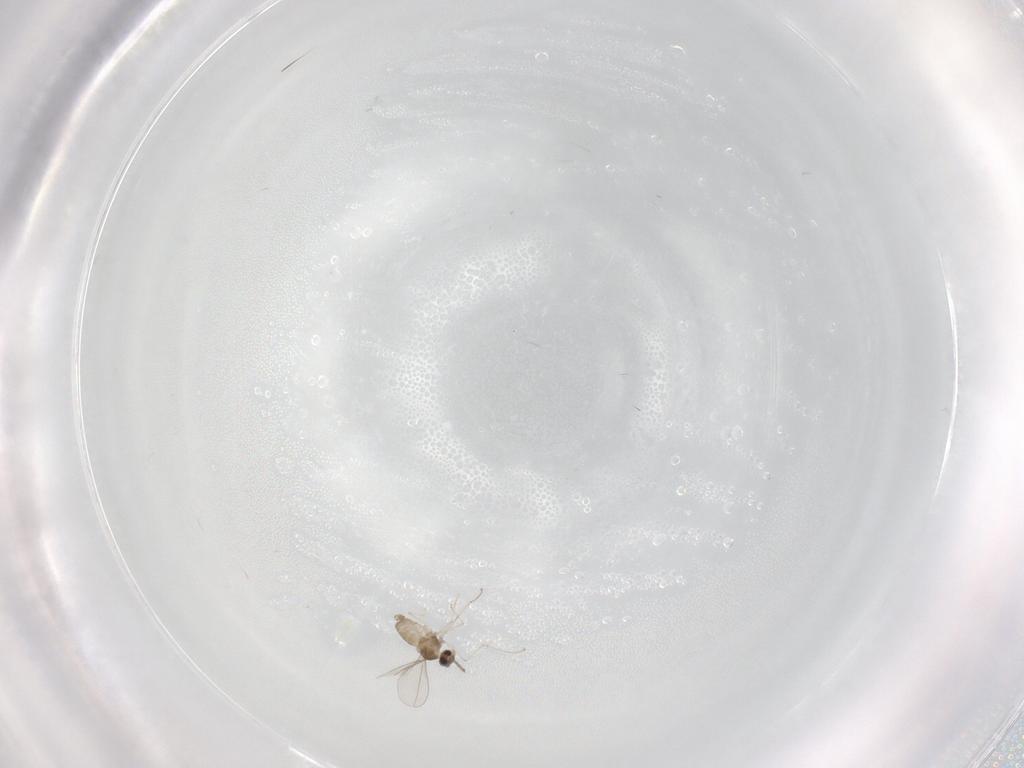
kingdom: Animalia
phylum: Arthropoda
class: Insecta
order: Diptera
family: Cecidomyiidae
